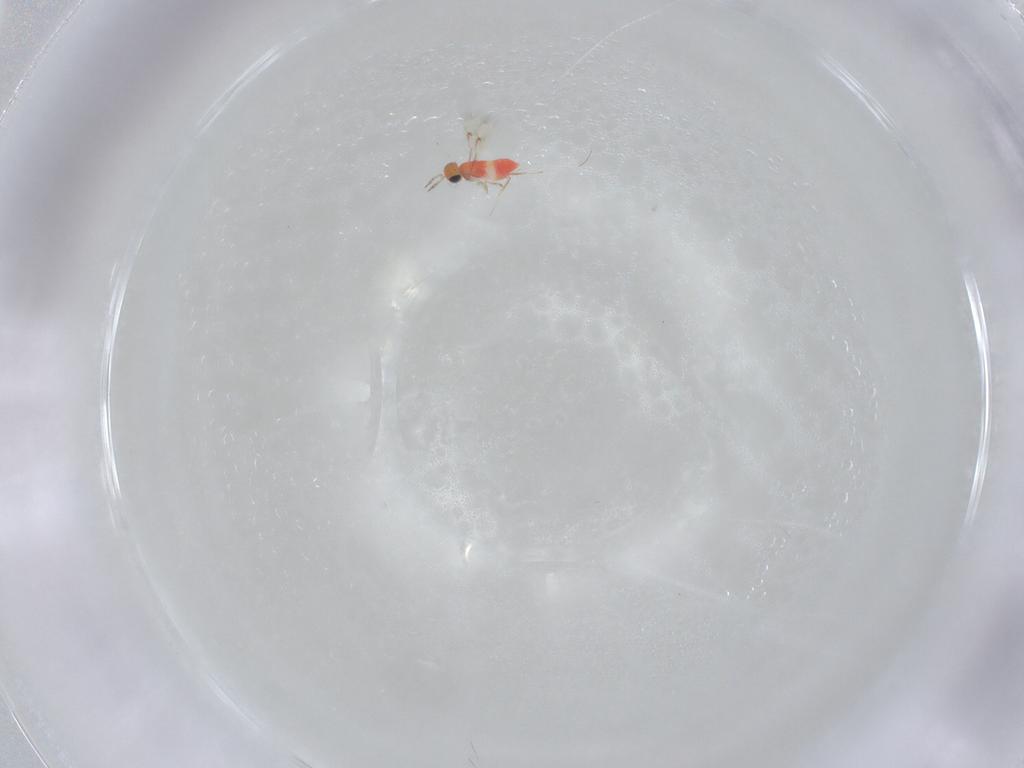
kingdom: Animalia
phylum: Arthropoda
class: Insecta
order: Hymenoptera
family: Trichogrammatidae
